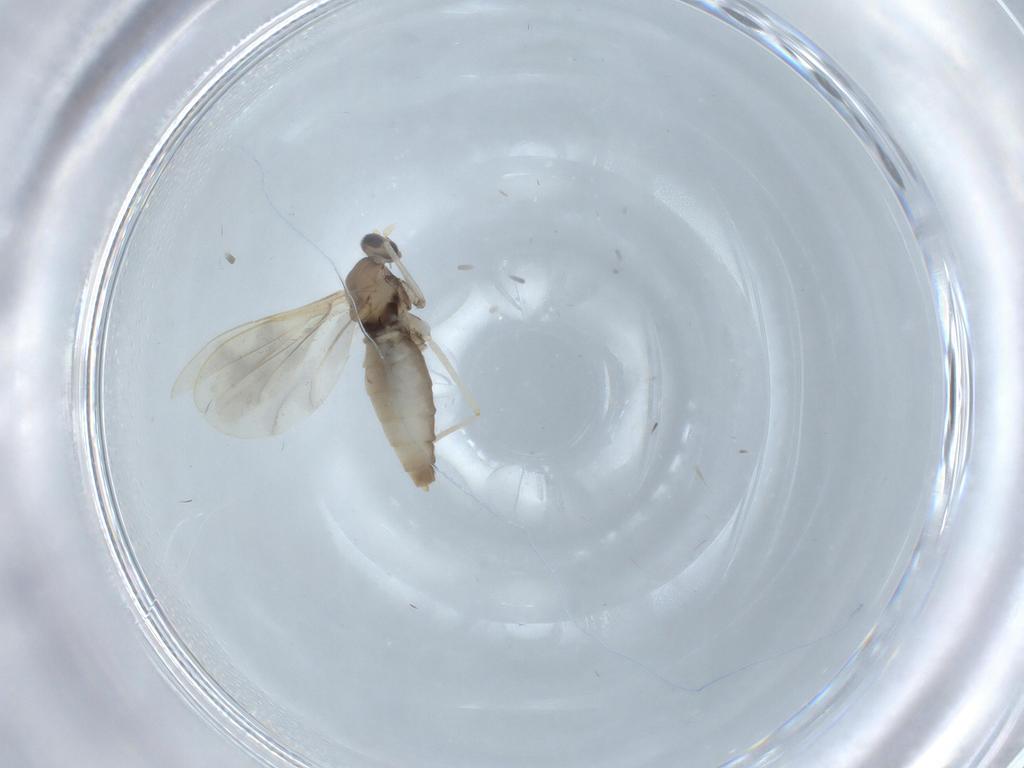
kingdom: Animalia
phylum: Arthropoda
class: Insecta
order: Diptera
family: Cecidomyiidae
